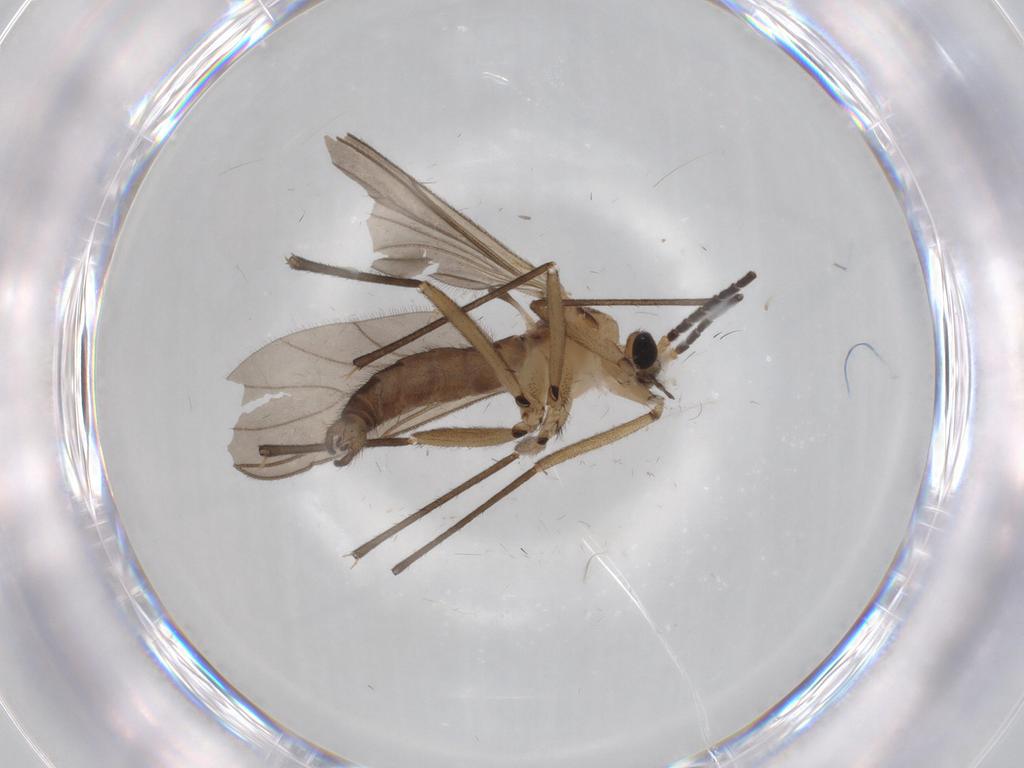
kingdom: Animalia
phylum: Arthropoda
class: Insecta
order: Diptera
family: Sciaridae
